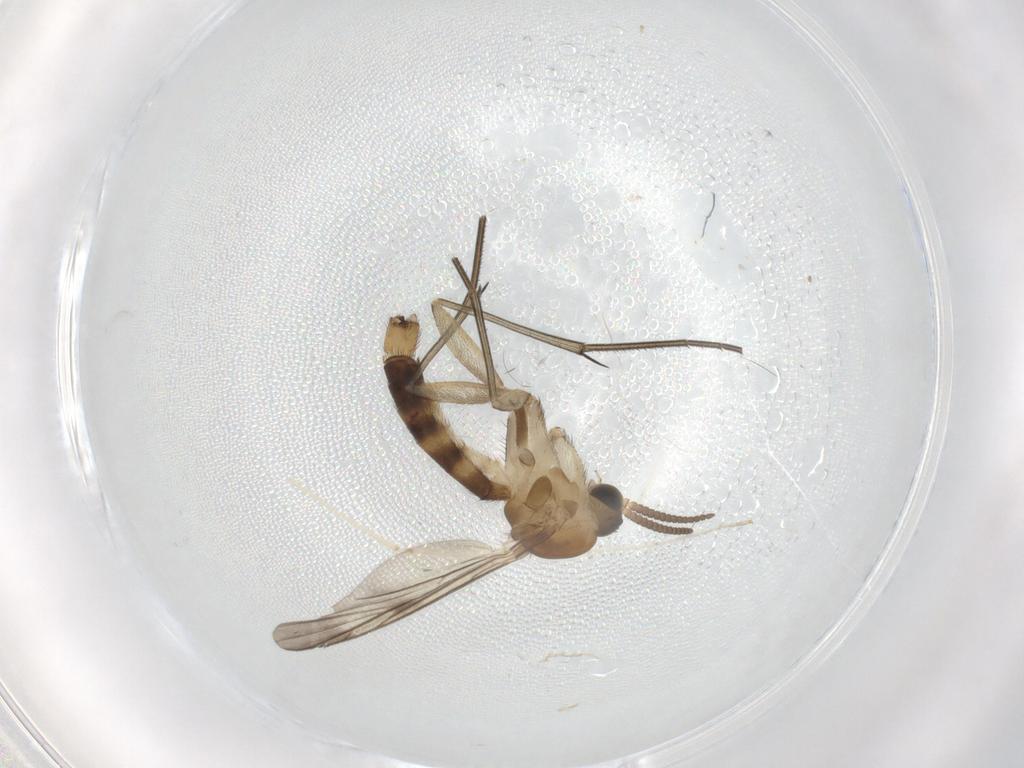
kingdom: Animalia
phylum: Arthropoda
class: Insecta
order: Diptera
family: Keroplatidae
